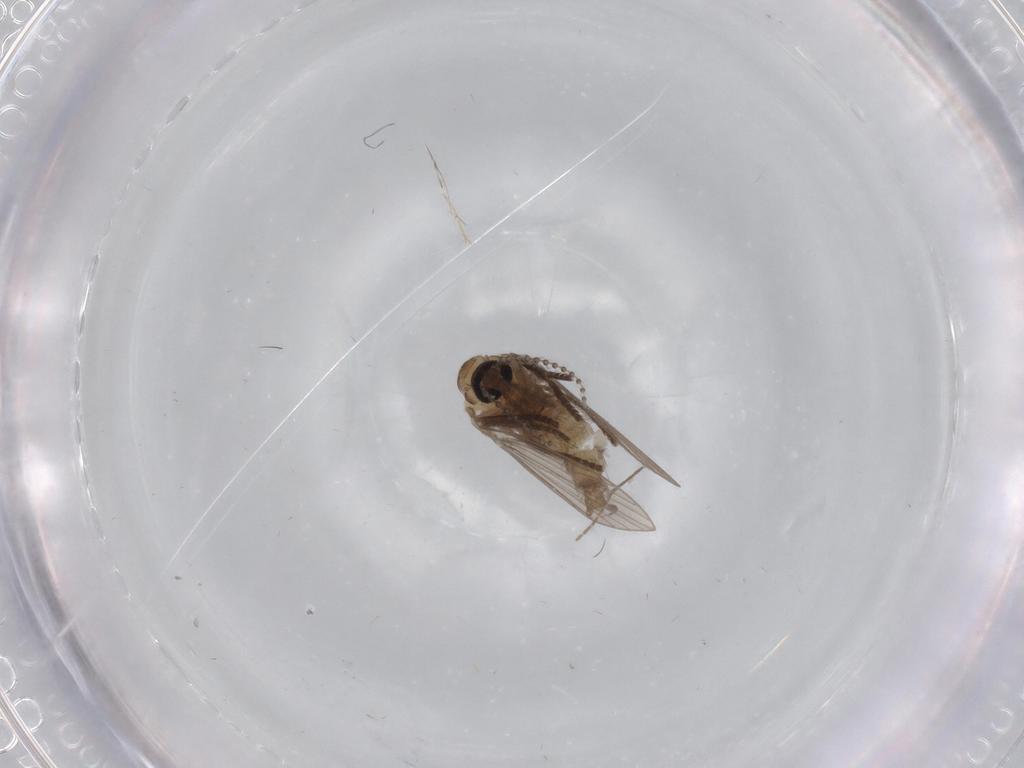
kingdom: Animalia
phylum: Arthropoda
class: Insecta
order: Diptera
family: Psychodidae
